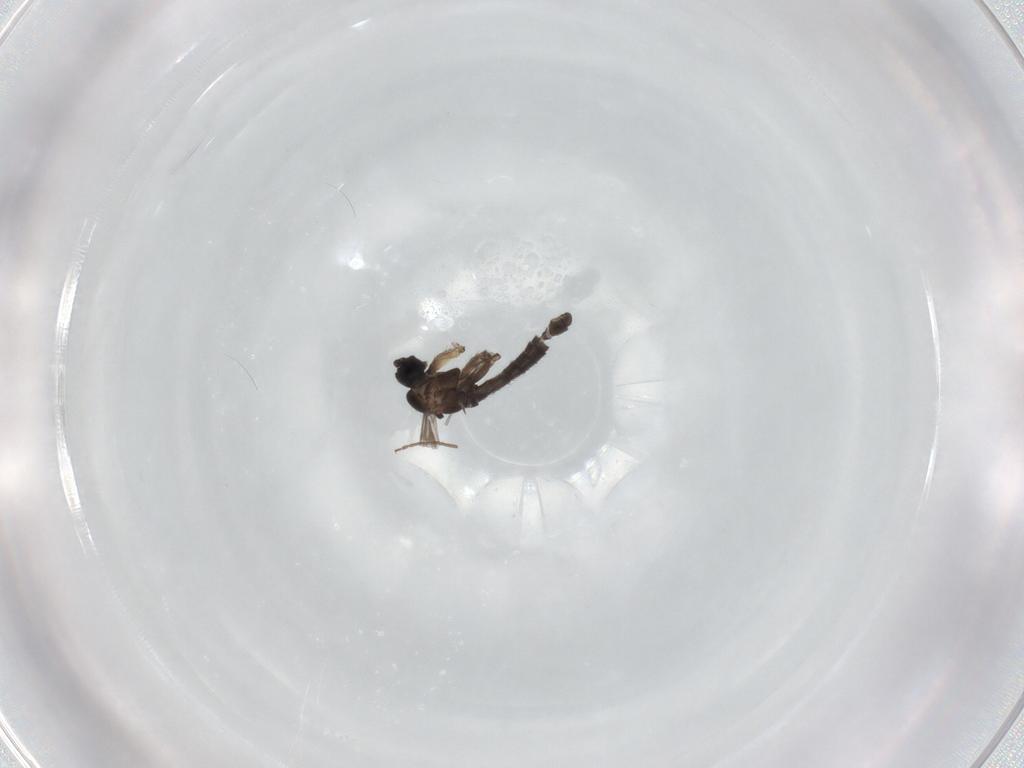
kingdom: Animalia
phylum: Arthropoda
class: Insecta
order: Diptera
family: Sciaridae
